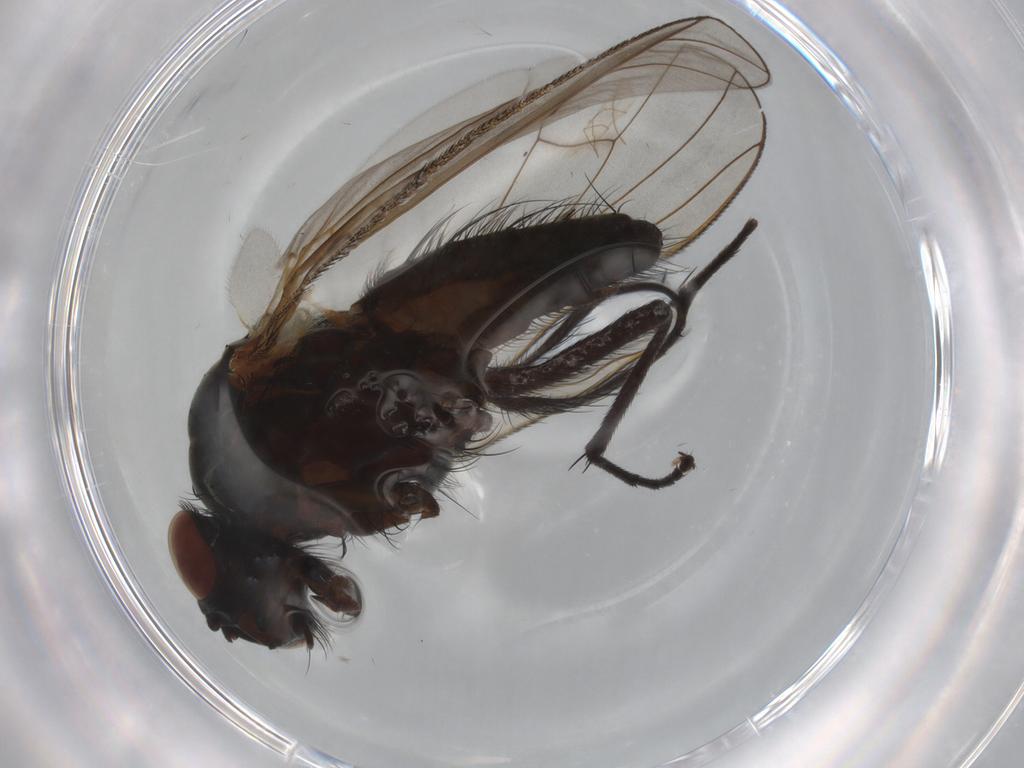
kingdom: Animalia
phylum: Arthropoda
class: Insecta
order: Diptera
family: Anthomyiidae
